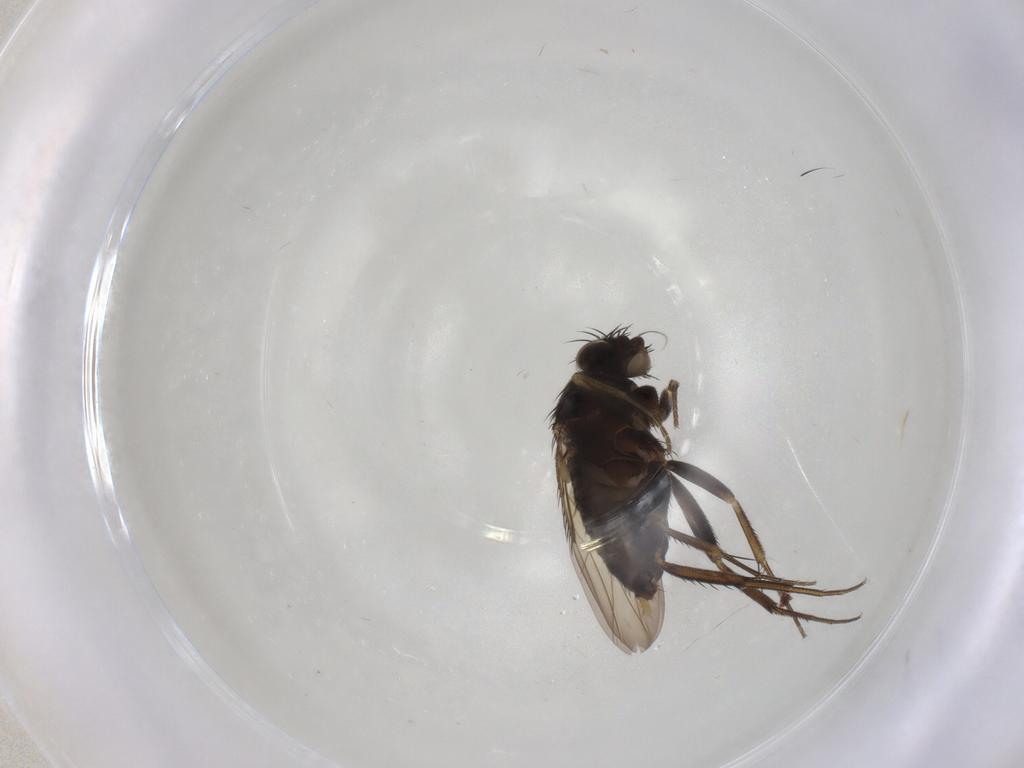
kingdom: Animalia
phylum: Arthropoda
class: Insecta
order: Diptera
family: Phoridae
